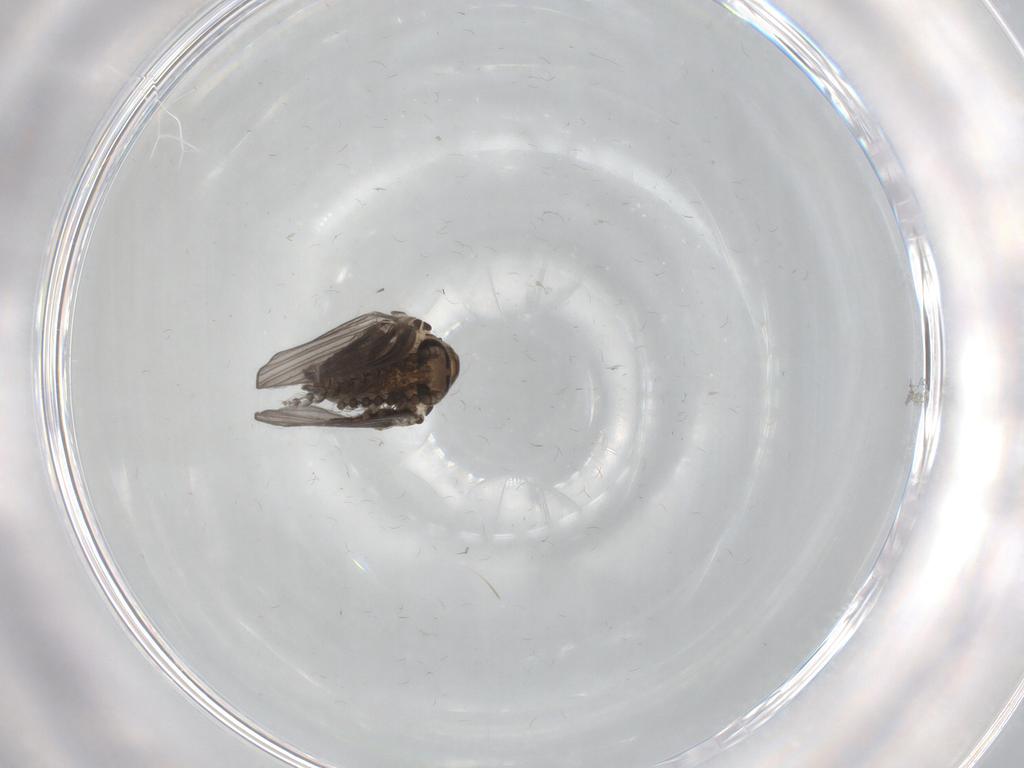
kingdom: Animalia
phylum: Arthropoda
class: Insecta
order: Diptera
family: Psychodidae
